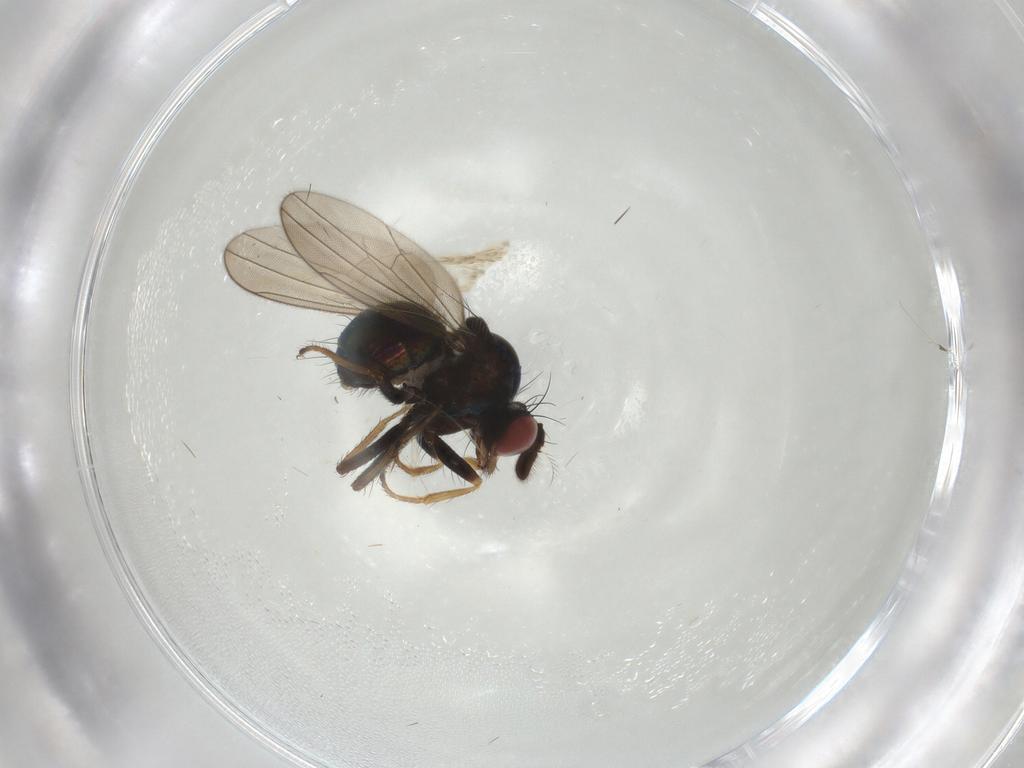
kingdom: Animalia
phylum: Arthropoda
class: Insecta
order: Diptera
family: Ephydridae
